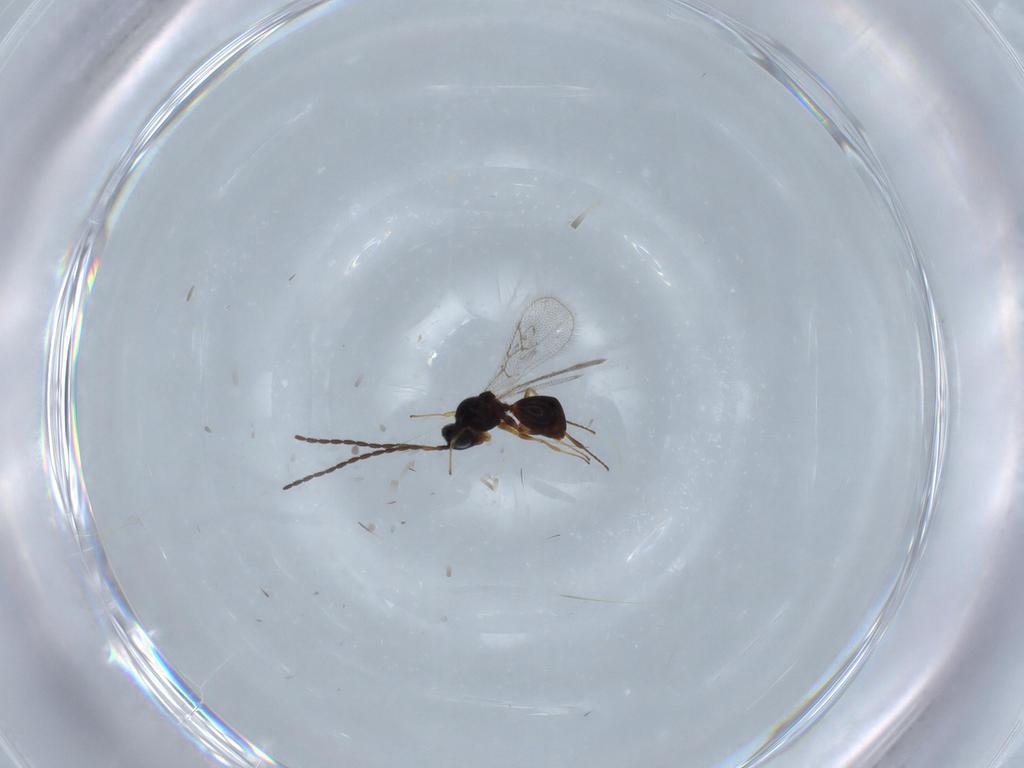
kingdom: Animalia
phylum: Arthropoda
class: Insecta
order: Hymenoptera
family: Figitidae
